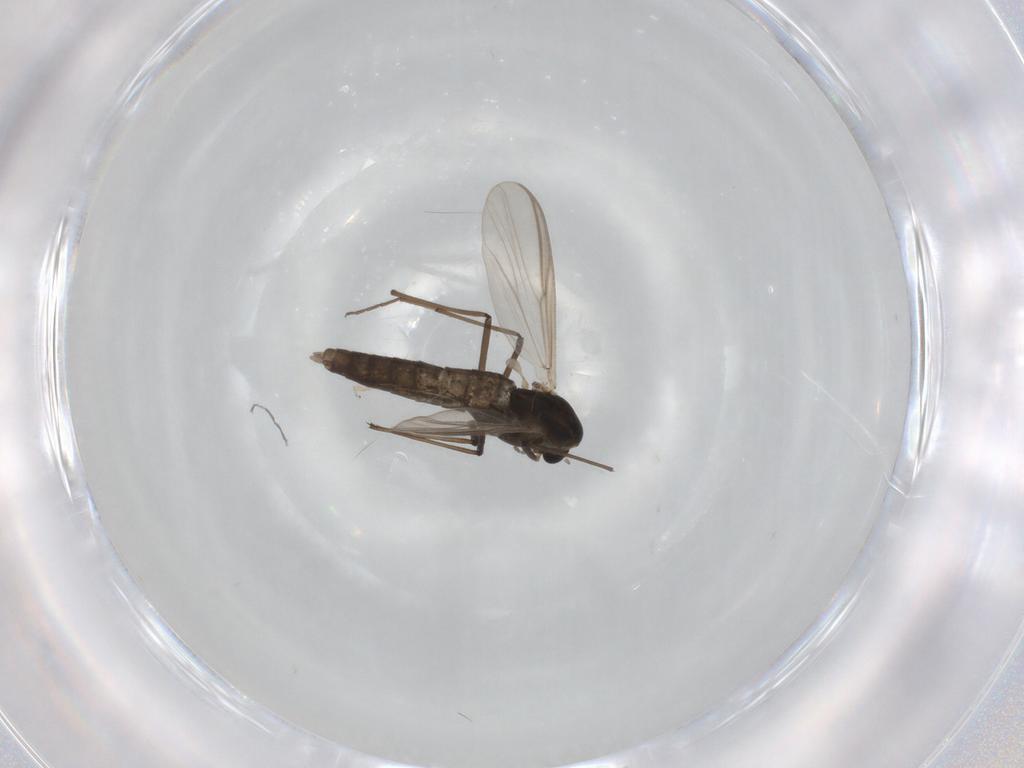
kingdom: Animalia
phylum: Arthropoda
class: Insecta
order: Diptera
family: Chironomidae
